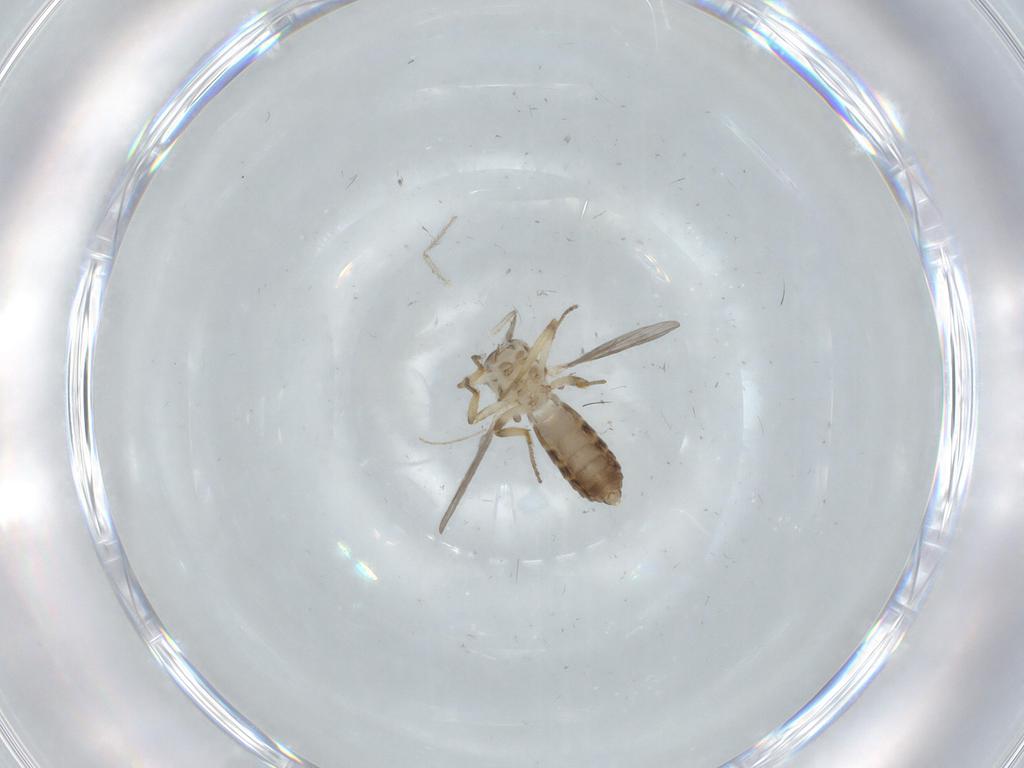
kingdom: Animalia
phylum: Arthropoda
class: Insecta
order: Diptera
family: Ceratopogonidae
